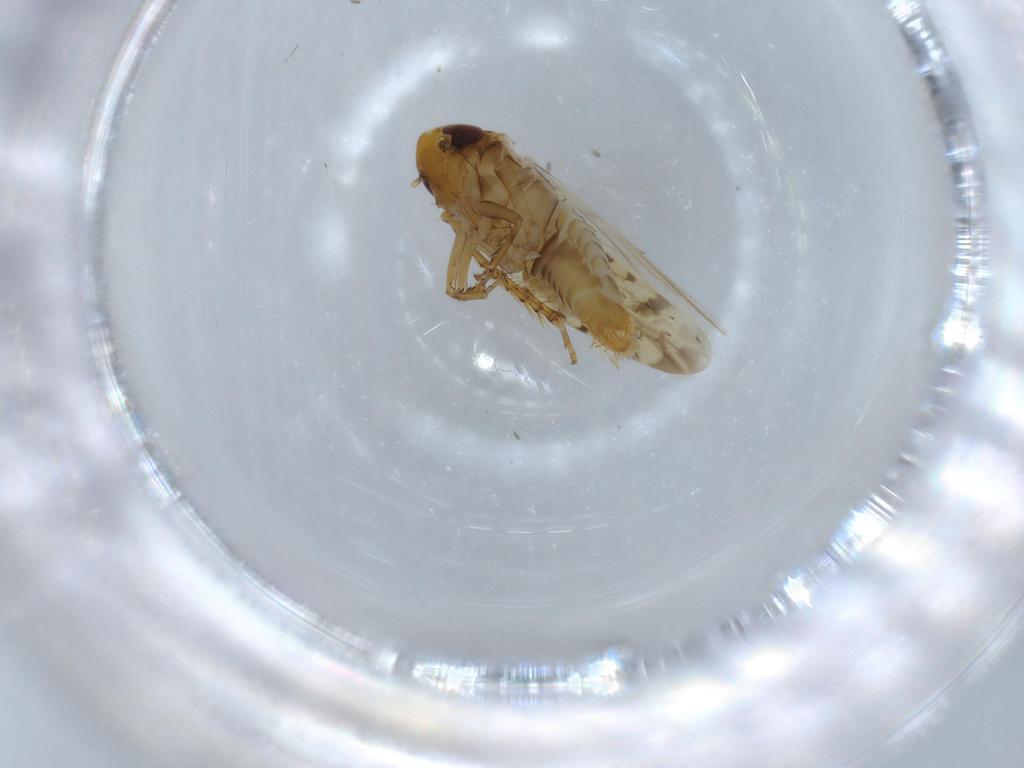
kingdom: Animalia
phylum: Arthropoda
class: Insecta
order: Hemiptera
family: Cicadellidae
